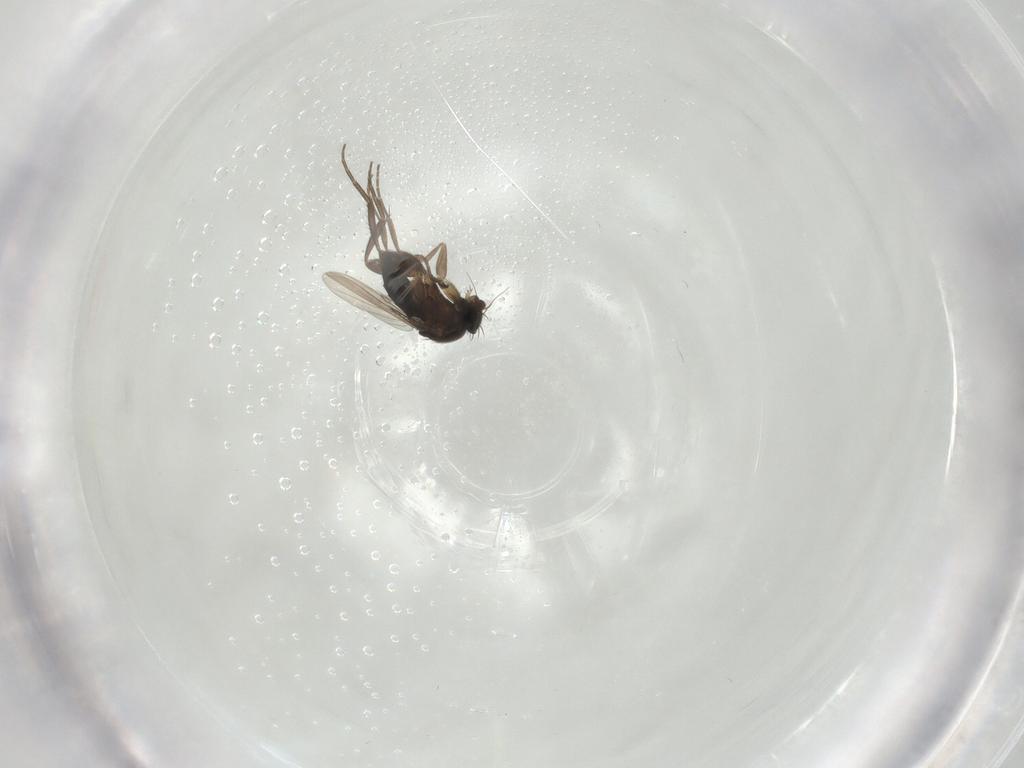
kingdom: Animalia
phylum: Arthropoda
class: Insecta
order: Diptera
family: Phoridae
